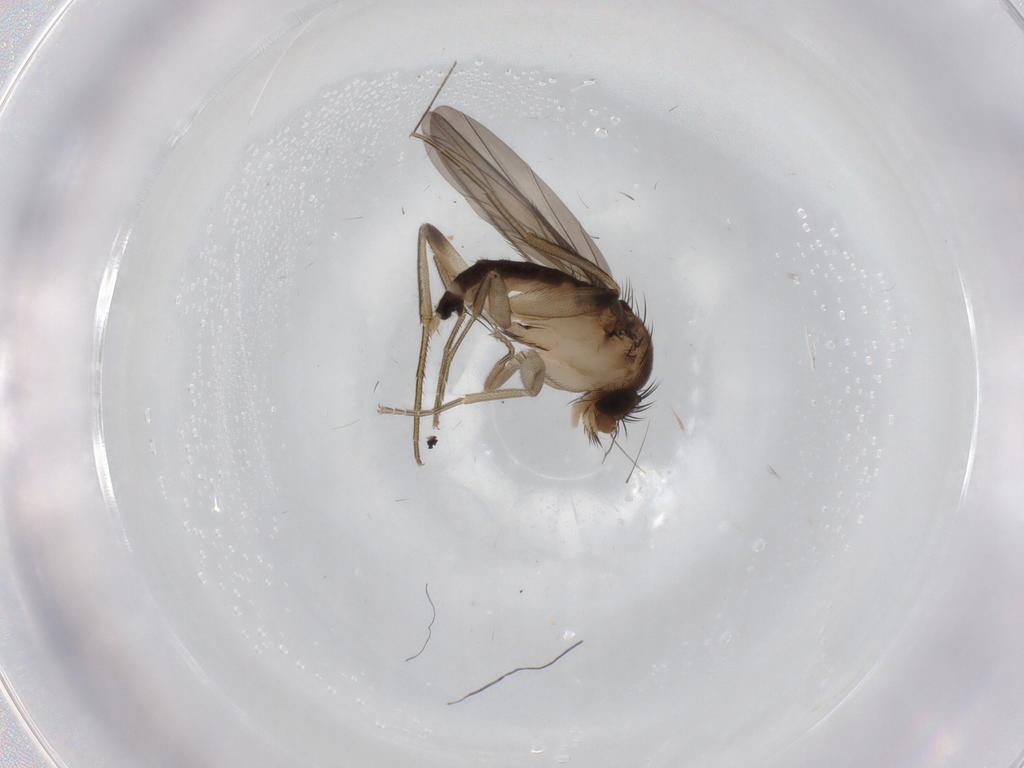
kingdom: Animalia
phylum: Arthropoda
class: Insecta
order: Diptera
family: Phoridae
